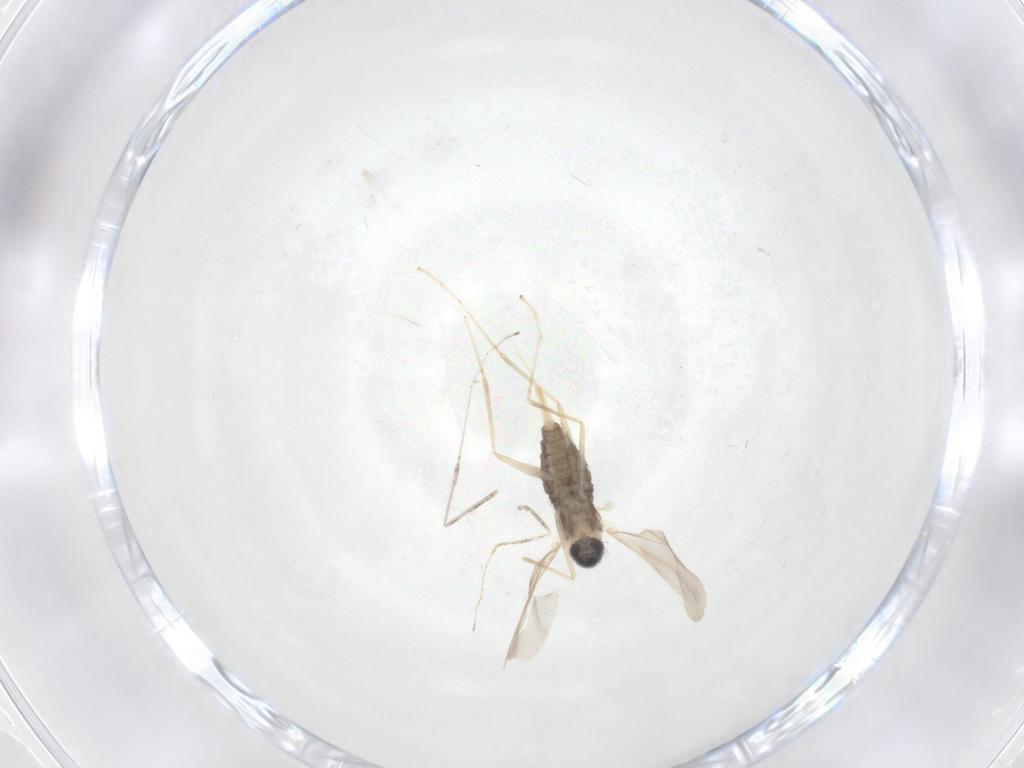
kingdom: Animalia
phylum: Arthropoda
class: Insecta
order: Diptera
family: Cecidomyiidae
